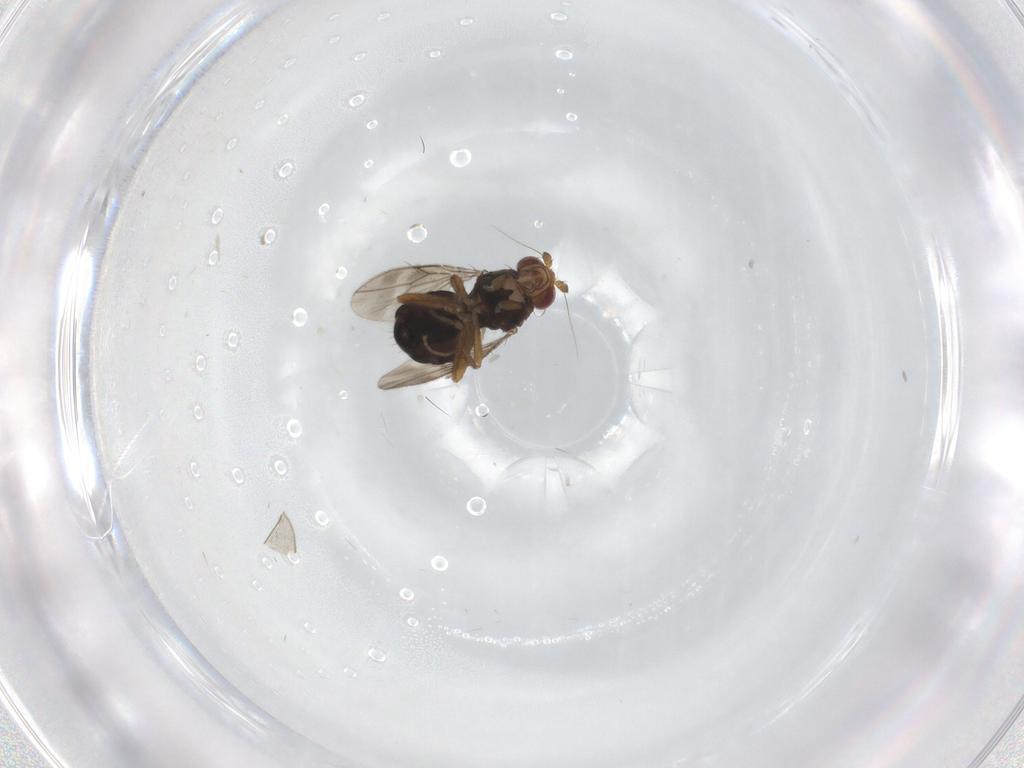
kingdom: Animalia
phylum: Arthropoda
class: Insecta
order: Diptera
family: Sphaeroceridae
